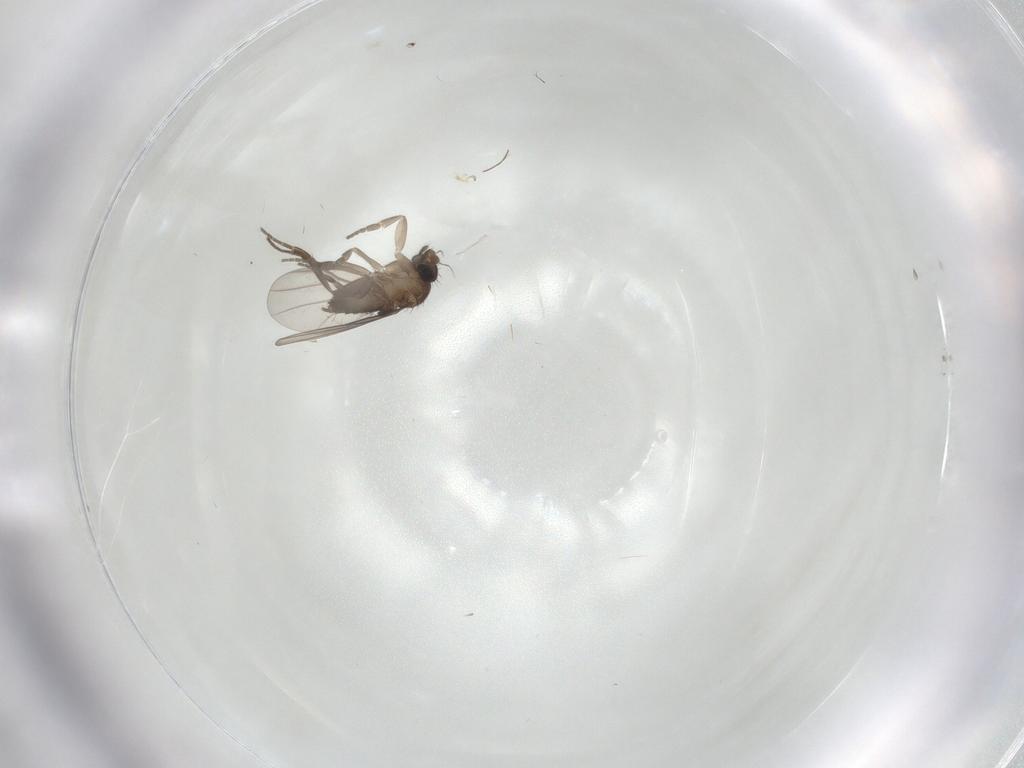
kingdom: Animalia
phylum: Arthropoda
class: Insecta
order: Diptera
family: Phoridae
